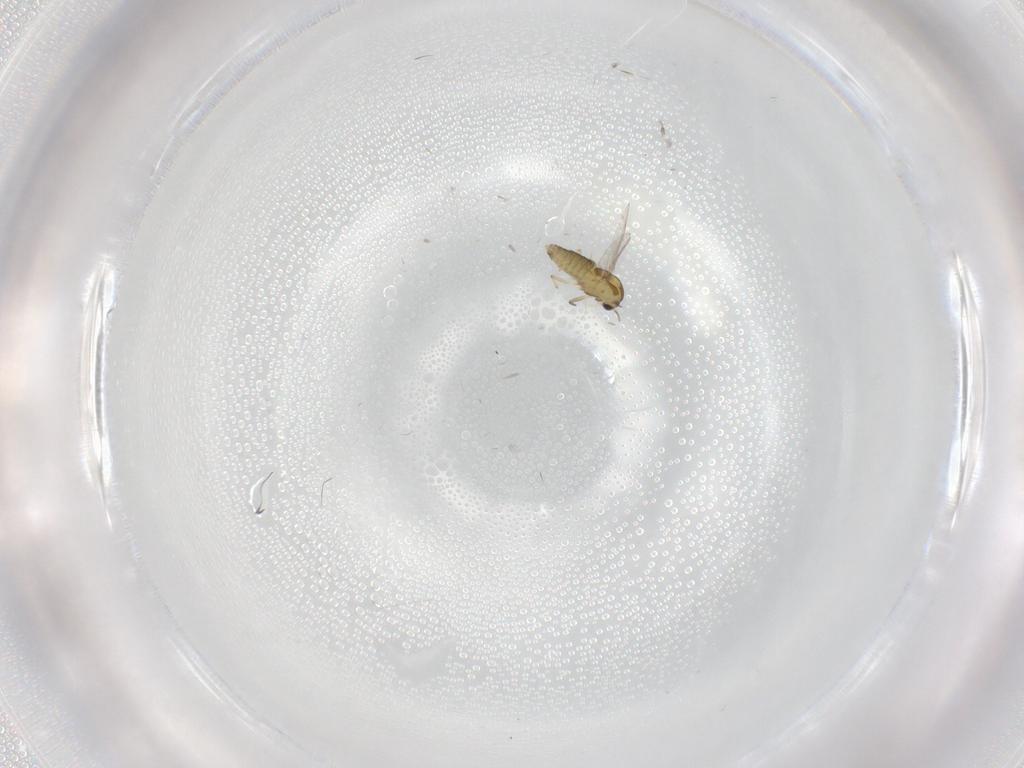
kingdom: Animalia
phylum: Arthropoda
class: Insecta
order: Diptera
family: Chironomidae
